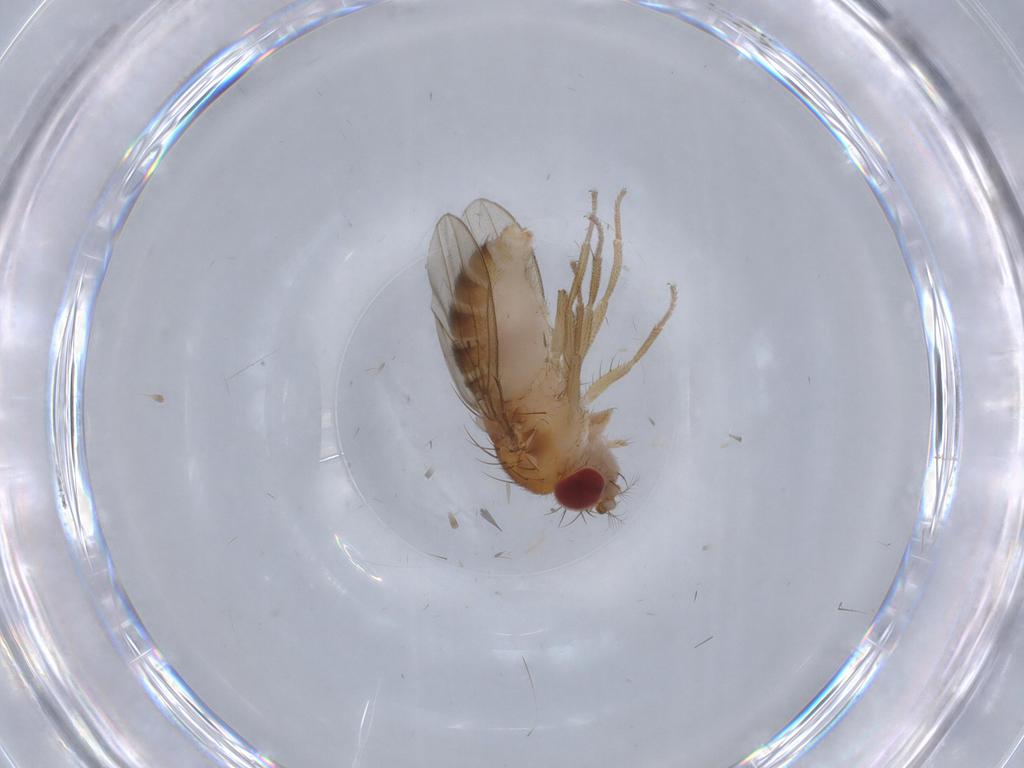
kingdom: Animalia
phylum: Arthropoda
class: Insecta
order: Diptera
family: Drosophilidae
